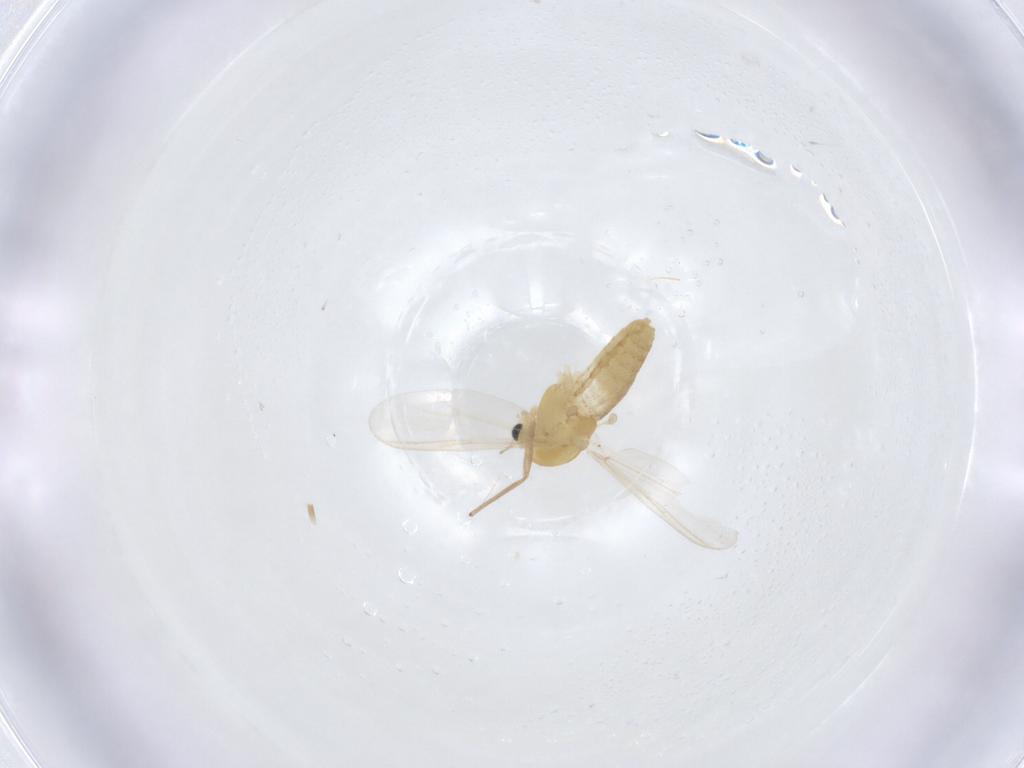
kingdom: Animalia
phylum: Arthropoda
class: Insecta
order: Diptera
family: Chironomidae
